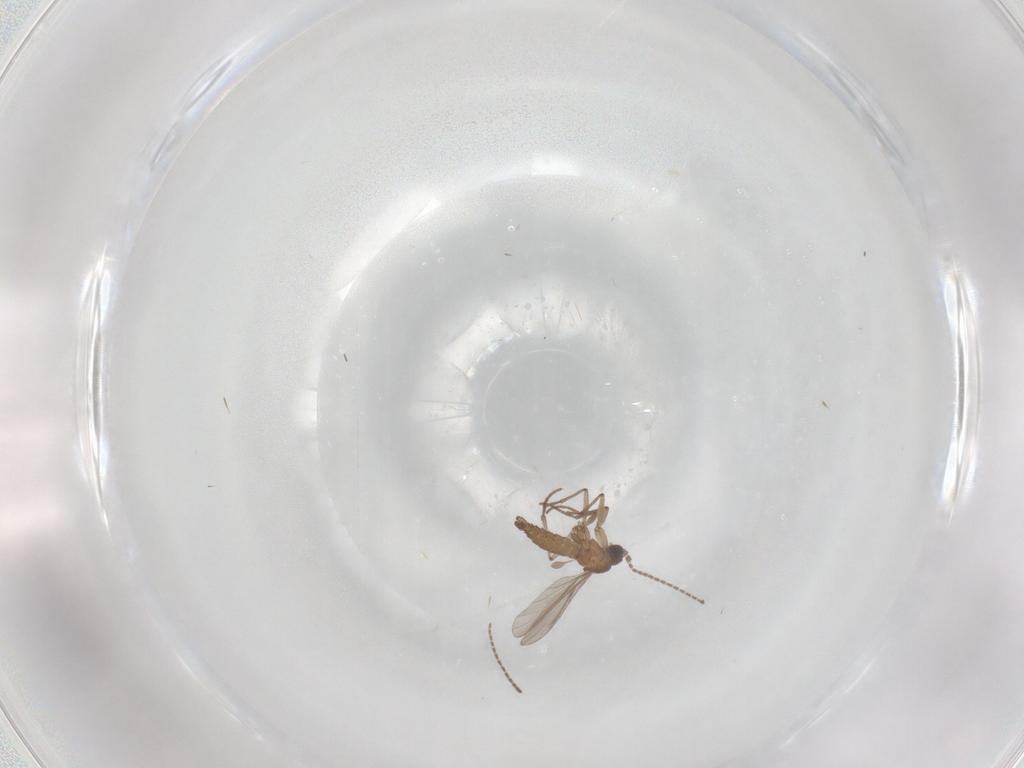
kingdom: Animalia
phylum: Arthropoda
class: Insecta
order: Diptera
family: Sciaridae
